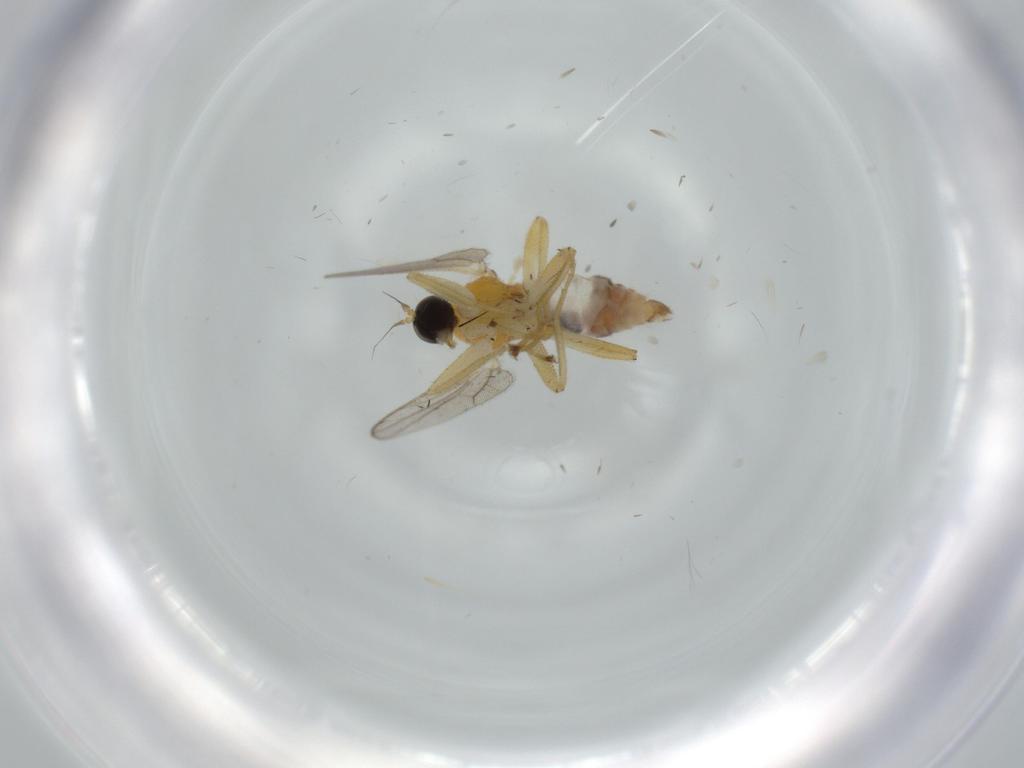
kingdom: Animalia
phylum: Arthropoda
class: Insecta
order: Diptera
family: Hybotidae
